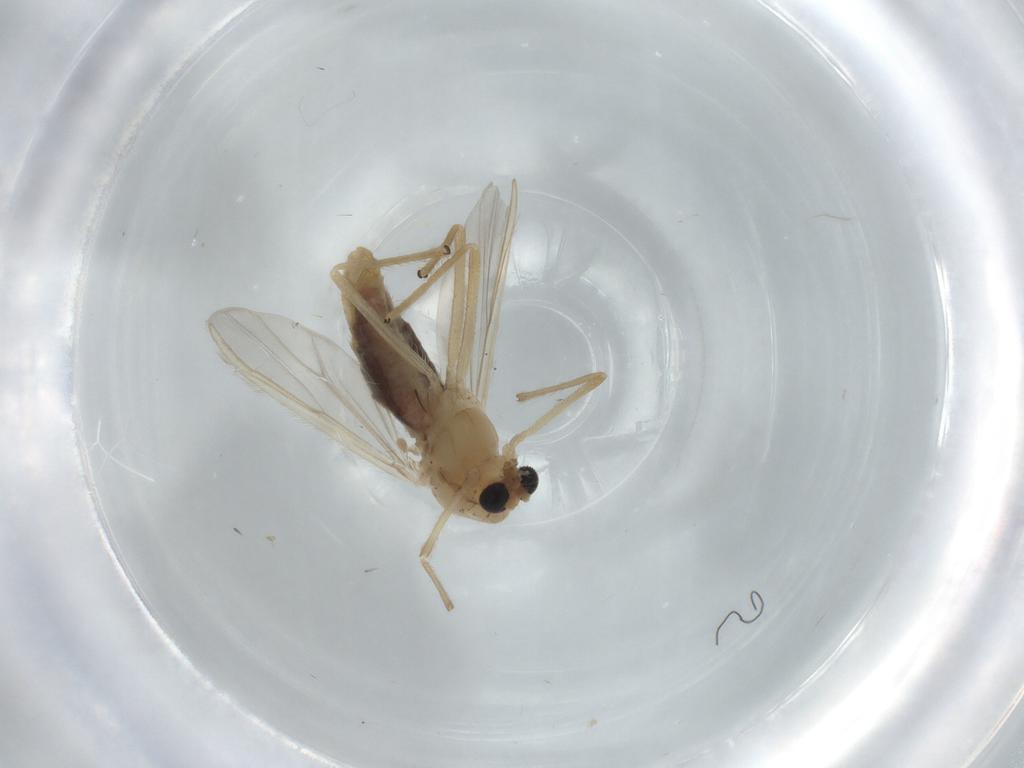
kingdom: Animalia
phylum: Arthropoda
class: Insecta
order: Diptera
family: Chironomidae
